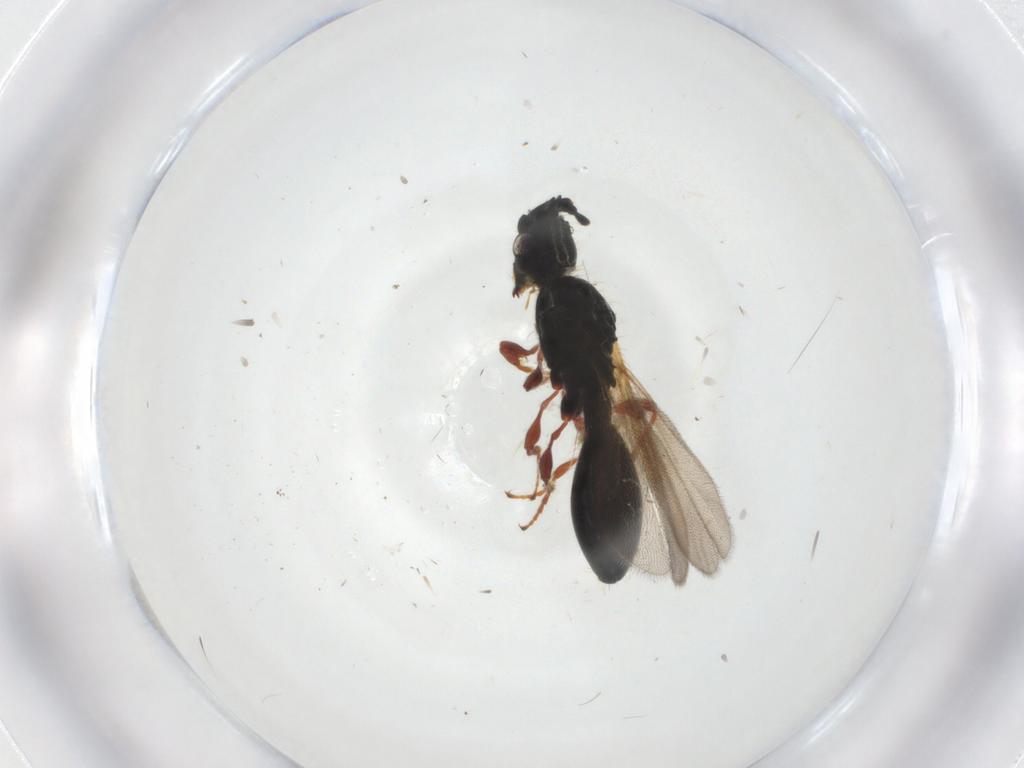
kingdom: Animalia
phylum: Arthropoda
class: Insecta
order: Hymenoptera
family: Diapriidae
